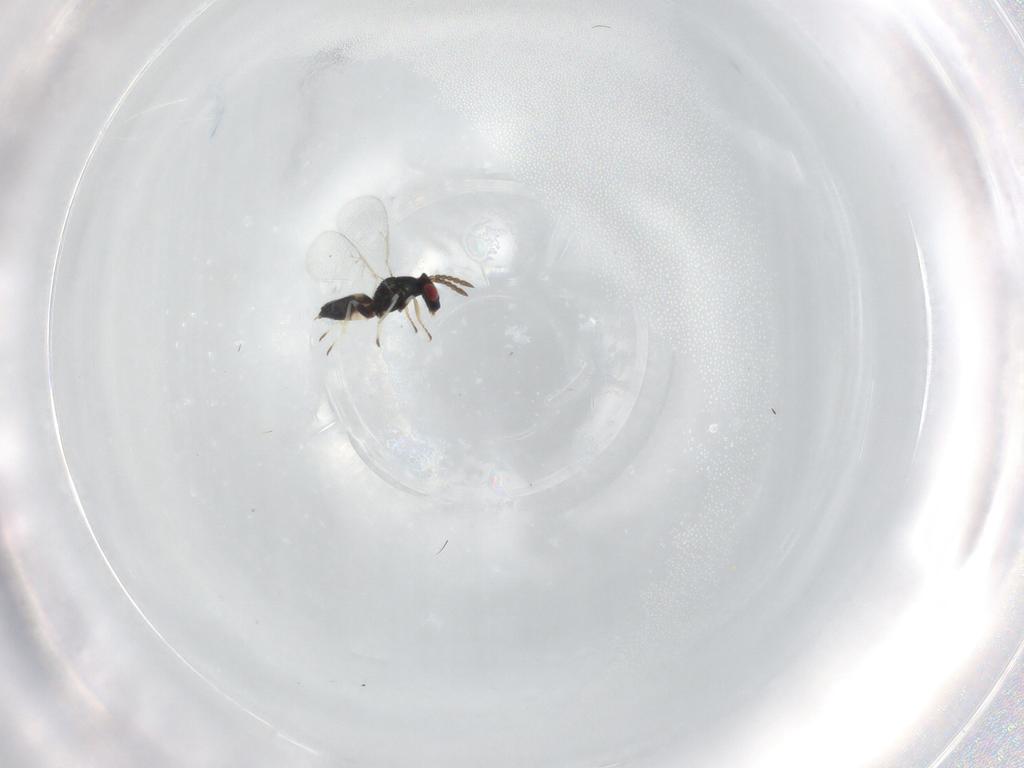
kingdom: Animalia
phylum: Arthropoda
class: Insecta
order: Hymenoptera
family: Eulophidae
